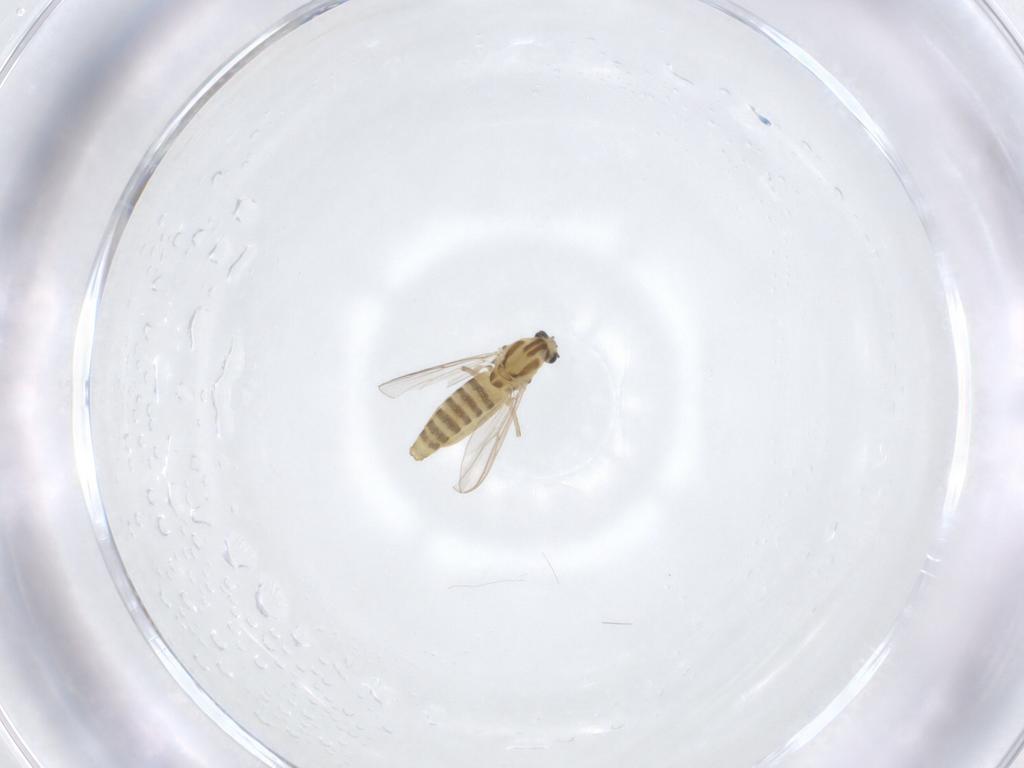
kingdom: Animalia
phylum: Arthropoda
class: Insecta
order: Diptera
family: Chironomidae
